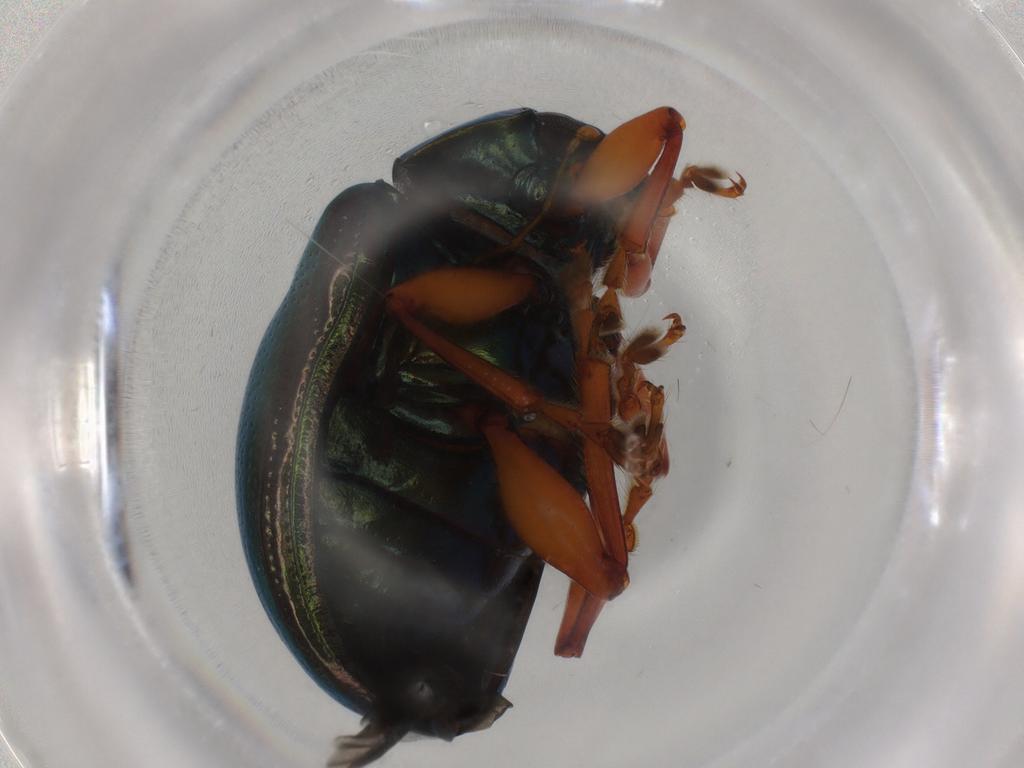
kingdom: Animalia
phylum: Arthropoda
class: Insecta
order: Coleoptera
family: Chrysomelidae
